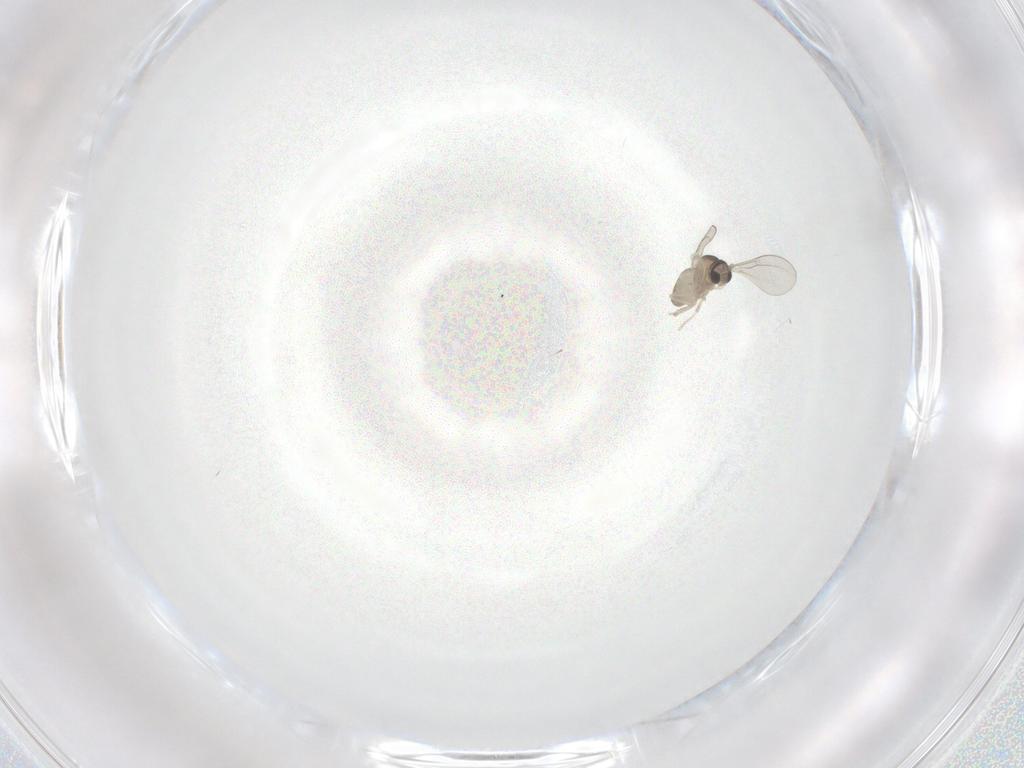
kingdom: Animalia
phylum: Arthropoda
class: Insecta
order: Diptera
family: Cecidomyiidae
